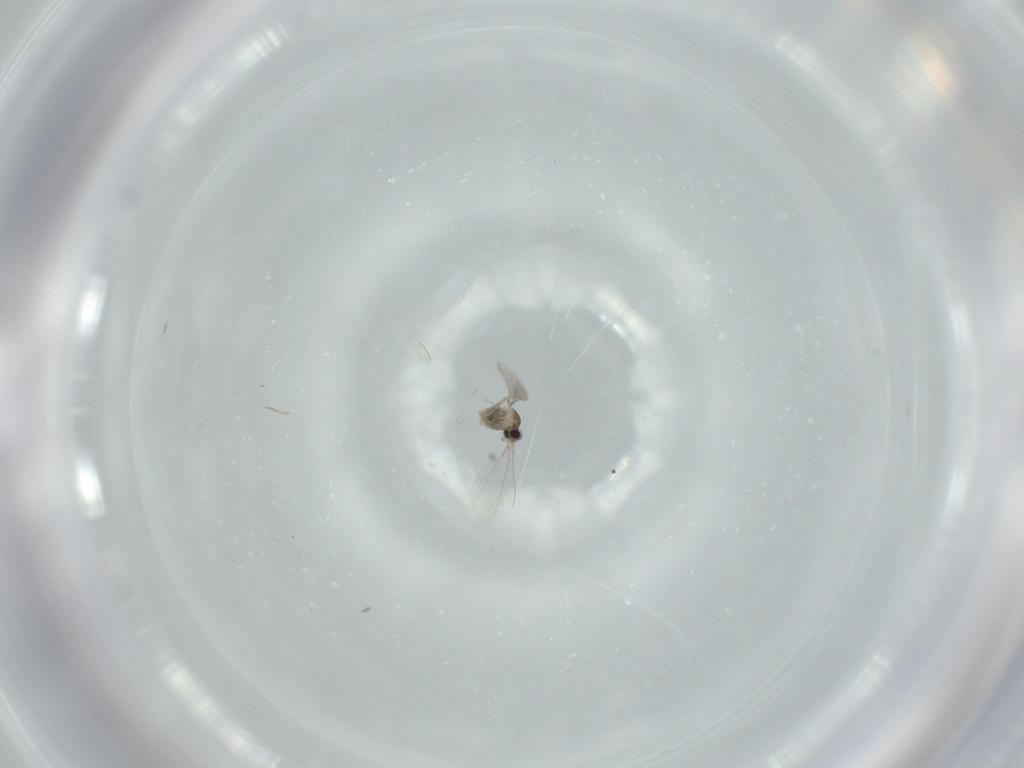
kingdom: Animalia
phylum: Arthropoda
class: Insecta
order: Diptera
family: Cecidomyiidae
